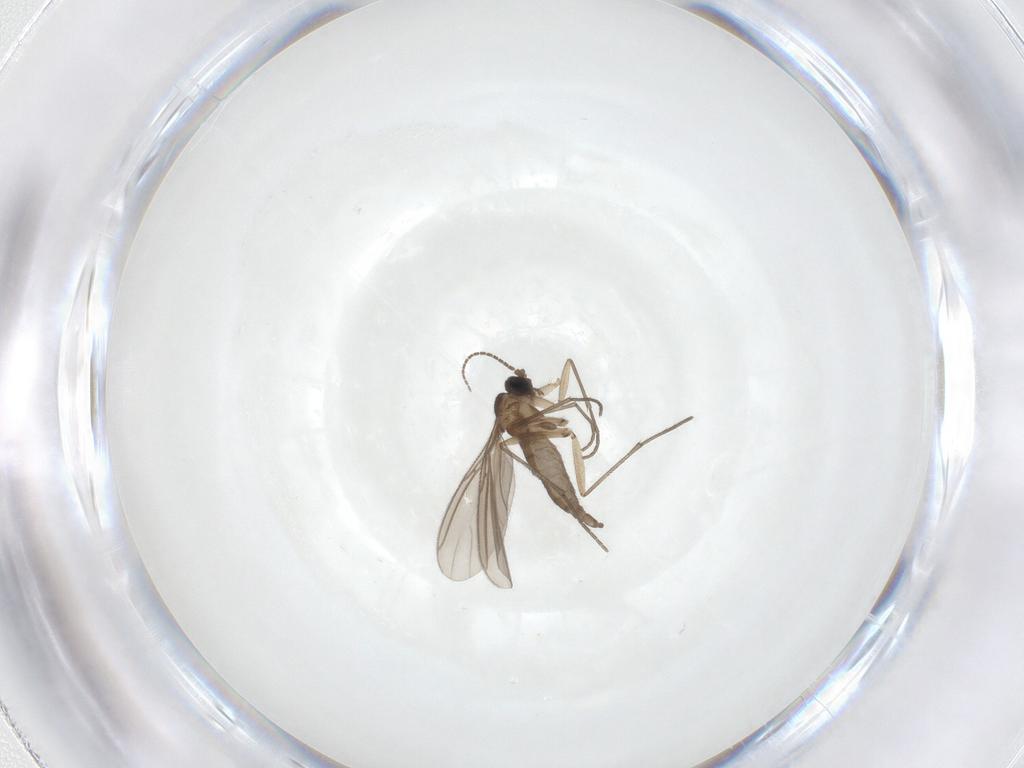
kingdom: Animalia
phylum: Arthropoda
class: Insecta
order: Diptera
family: Sciaridae
